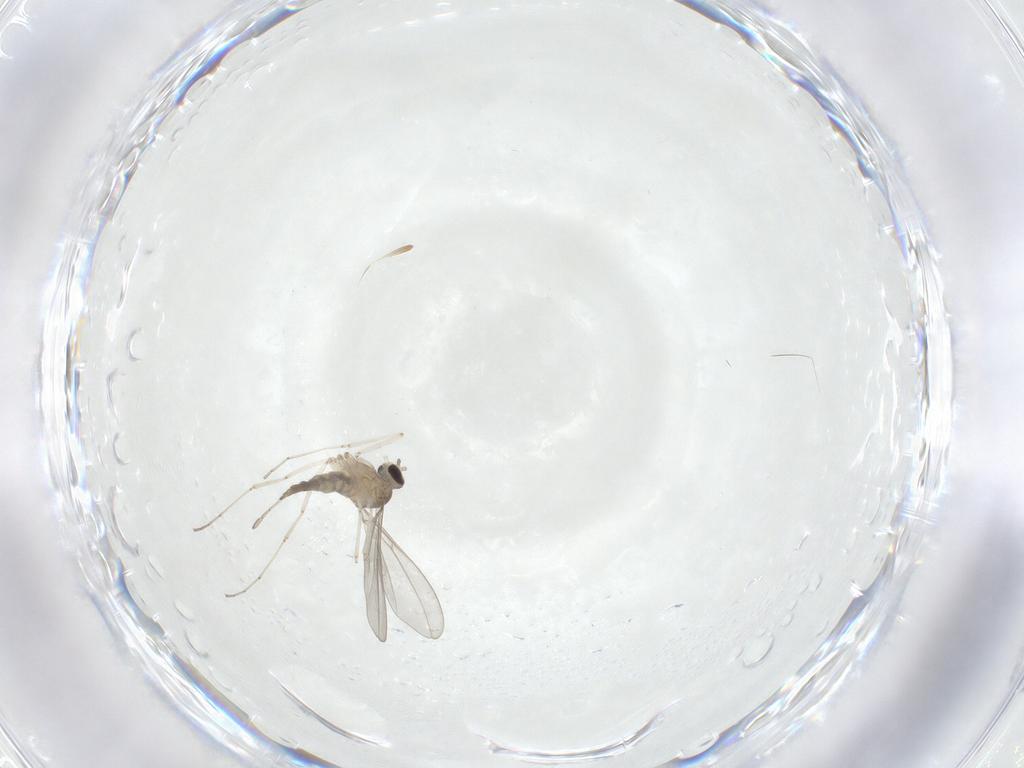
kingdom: Animalia
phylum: Arthropoda
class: Insecta
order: Diptera
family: Cecidomyiidae
